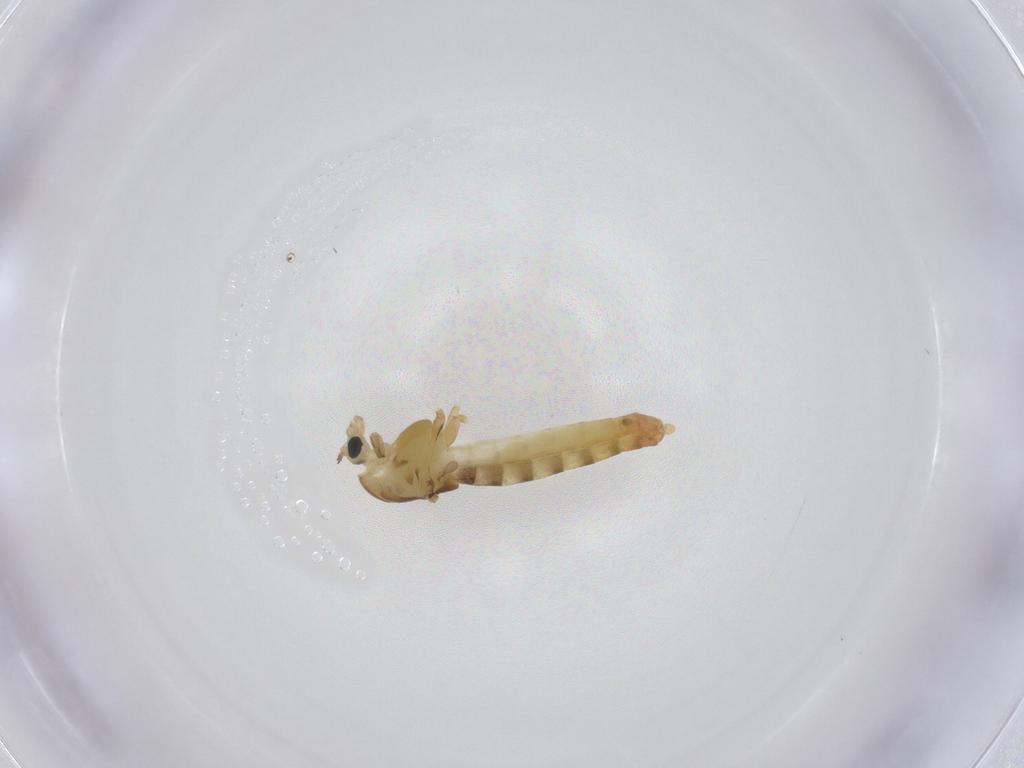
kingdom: Animalia
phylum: Arthropoda
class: Insecta
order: Diptera
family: Chironomidae
